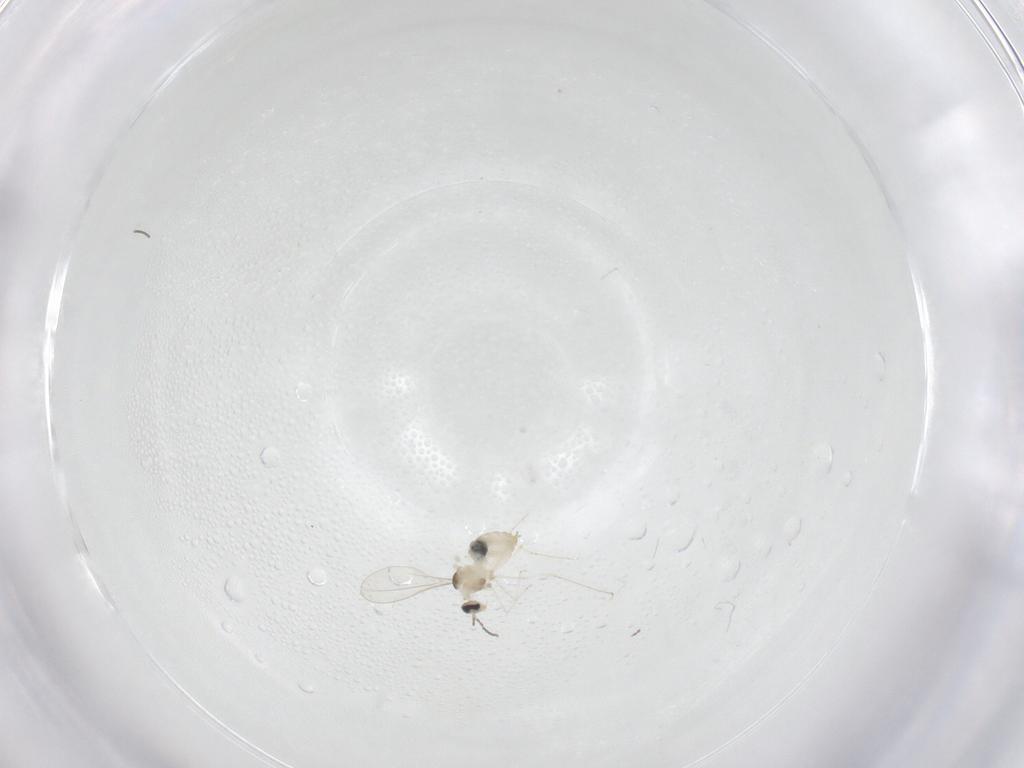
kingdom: Animalia
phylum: Arthropoda
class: Insecta
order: Diptera
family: Cecidomyiidae
